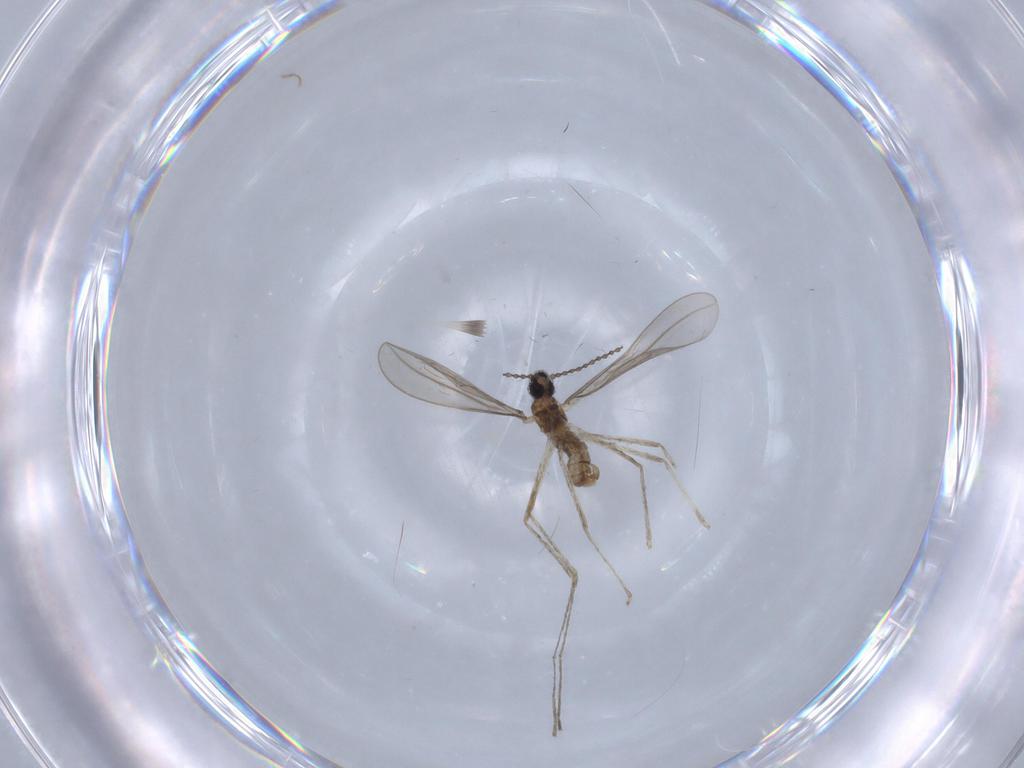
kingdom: Animalia
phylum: Arthropoda
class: Insecta
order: Diptera
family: Cecidomyiidae
